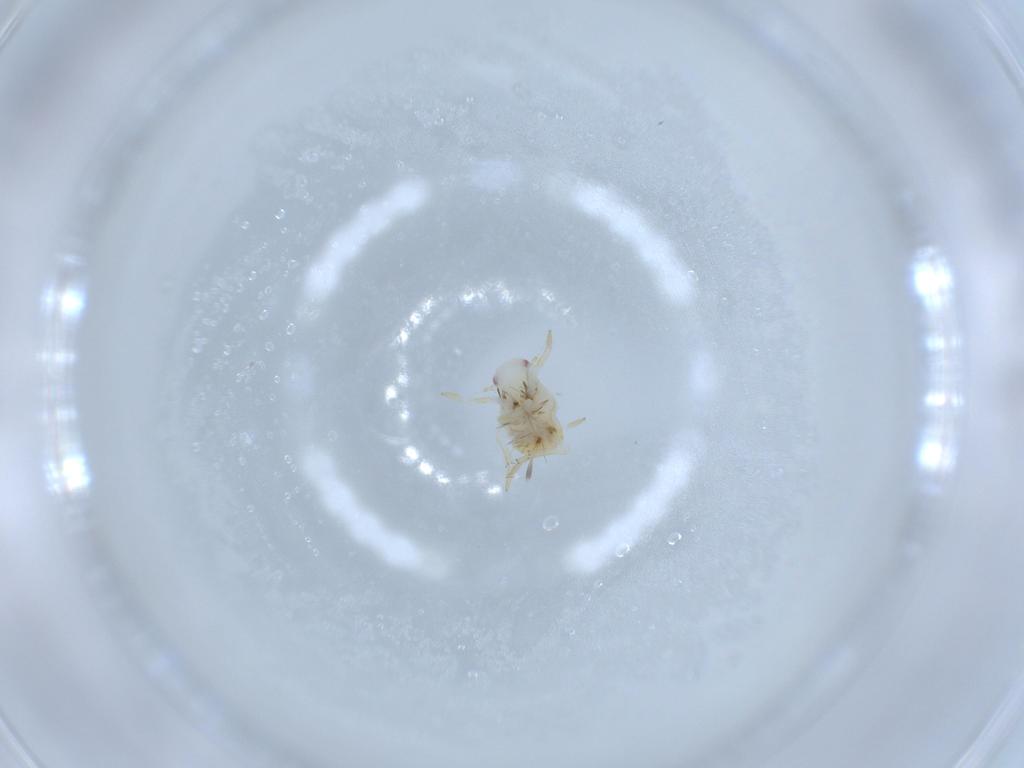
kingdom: Animalia
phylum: Arthropoda
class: Insecta
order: Hemiptera
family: Flatidae
